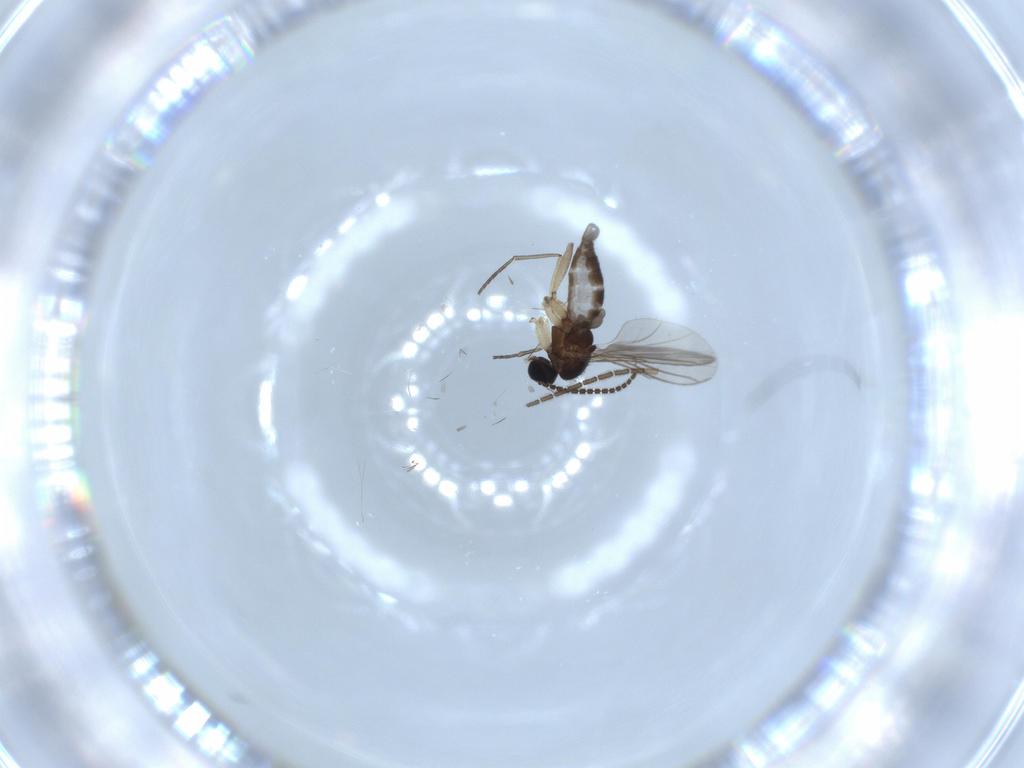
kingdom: Animalia
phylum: Arthropoda
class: Insecta
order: Diptera
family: Sciaridae
